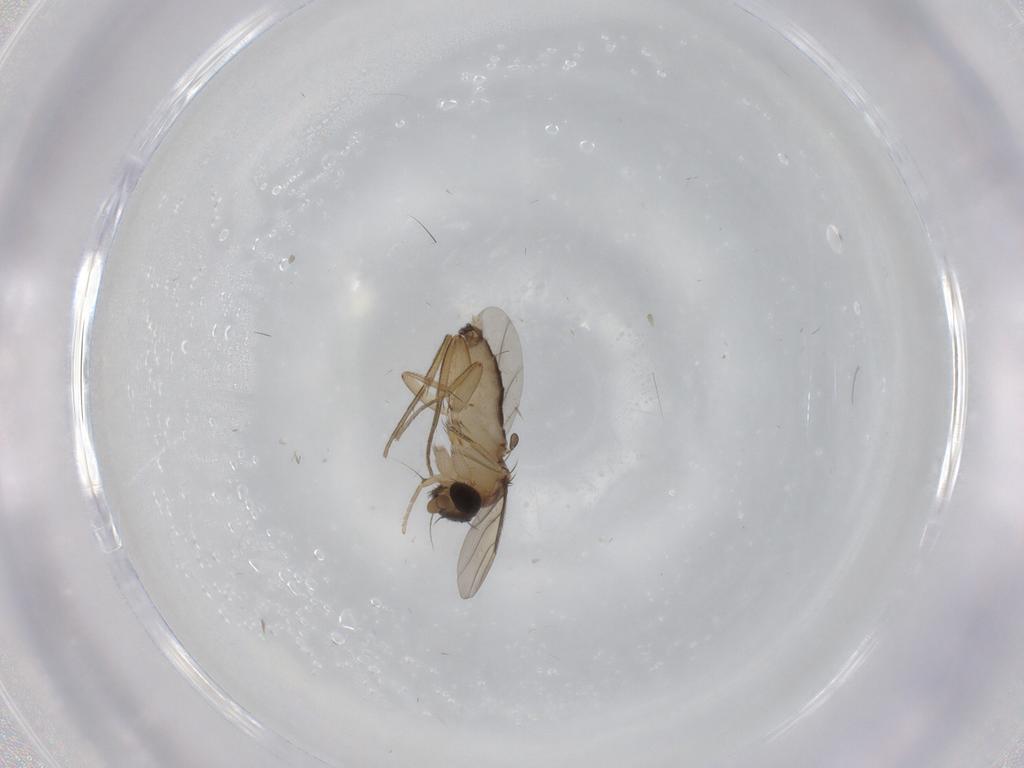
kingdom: Animalia
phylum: Arthropoda
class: Insecta
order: Diptera
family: Phoridae
